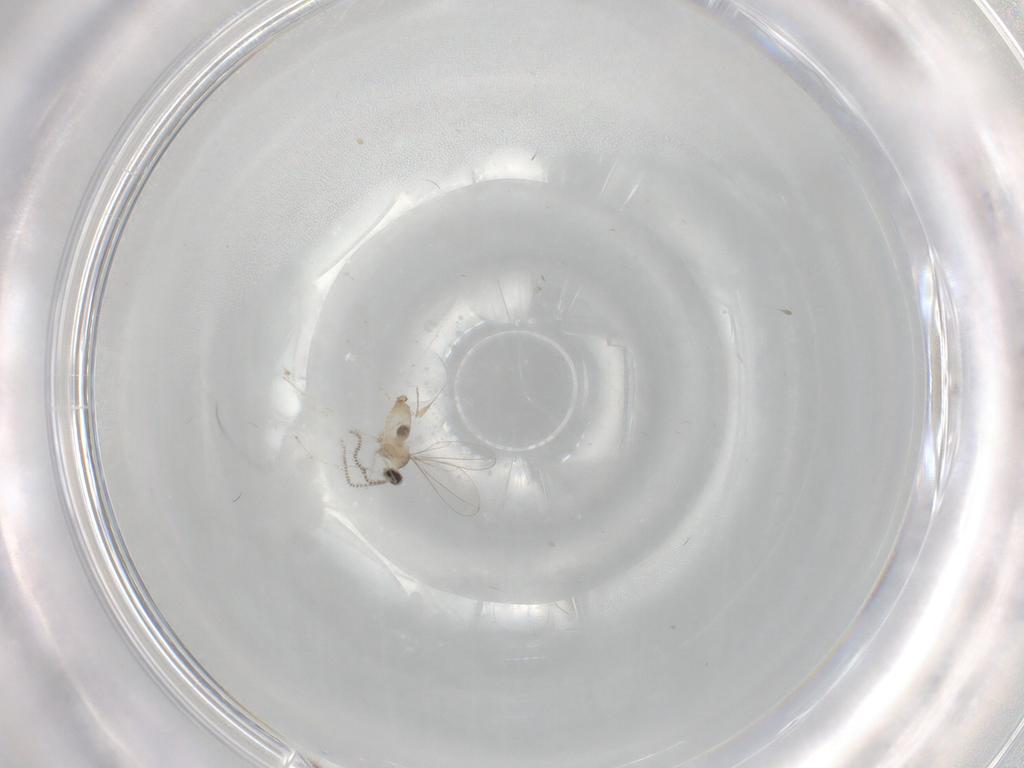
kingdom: Animalia
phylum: Arthropoda
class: Insecta
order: Diptera
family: Cecidomyiidae
